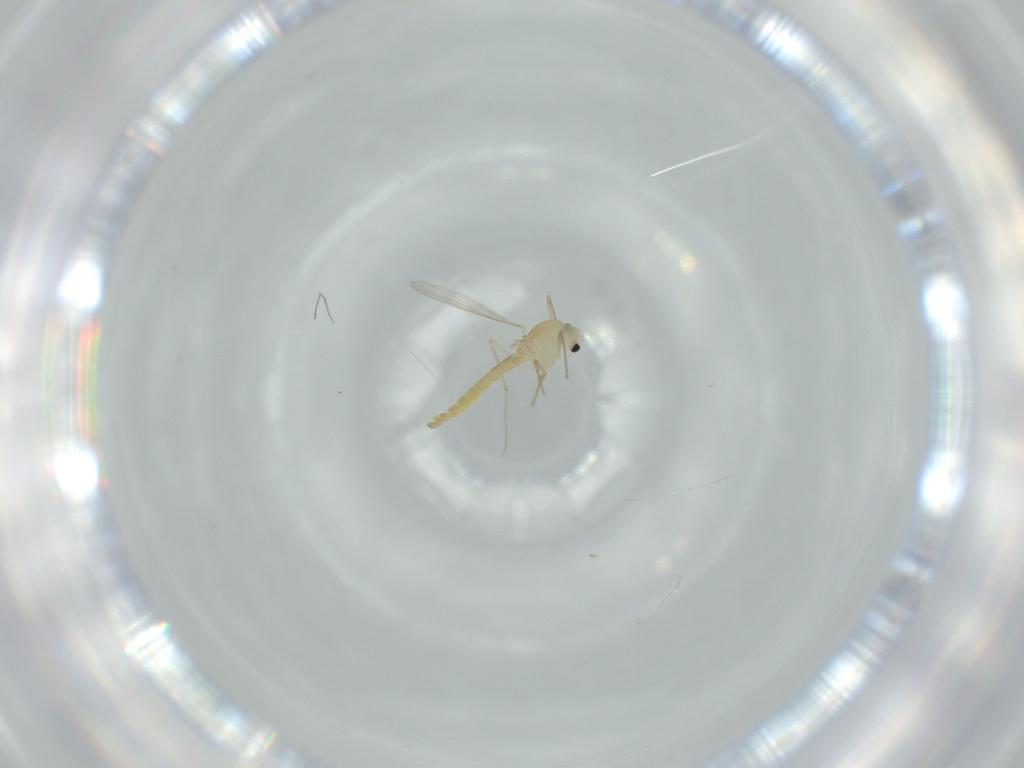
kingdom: Animalia
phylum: Arthropoda
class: Insecta
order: Diptera
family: Chironomidae
